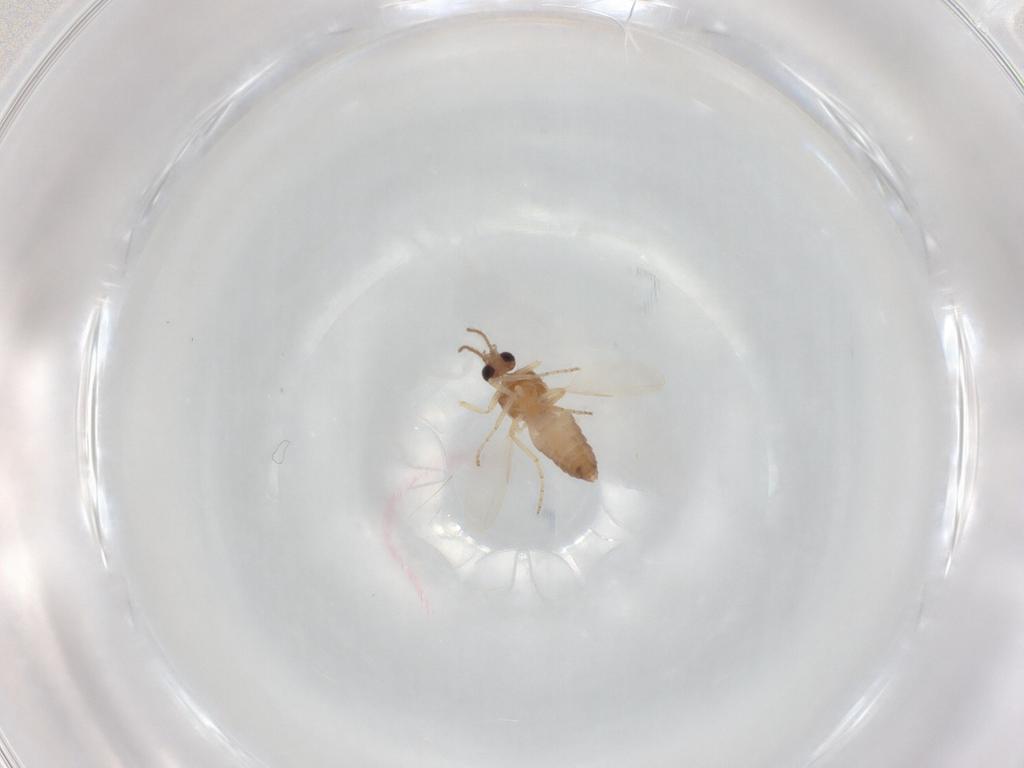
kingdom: Animalia
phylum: Arthropoda
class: Insecta
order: Diptera
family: Ceratopogonidae
